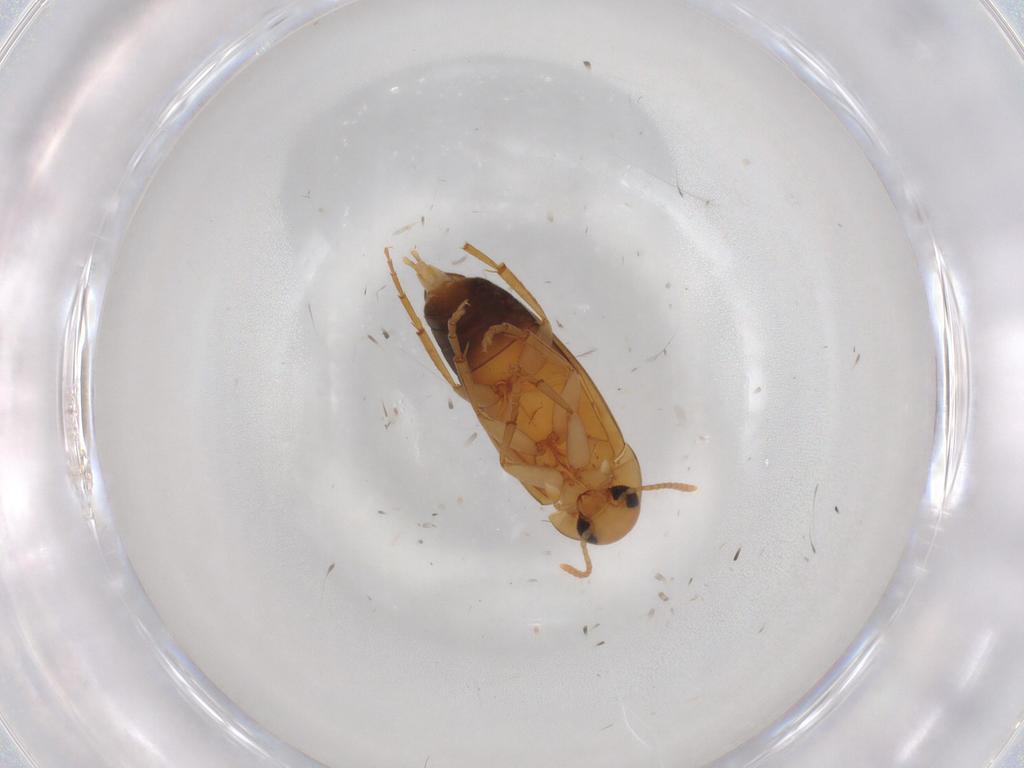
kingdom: Animalia
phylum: Arthropoda
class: Insecta
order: Coleoptera
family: Scraptiidae
